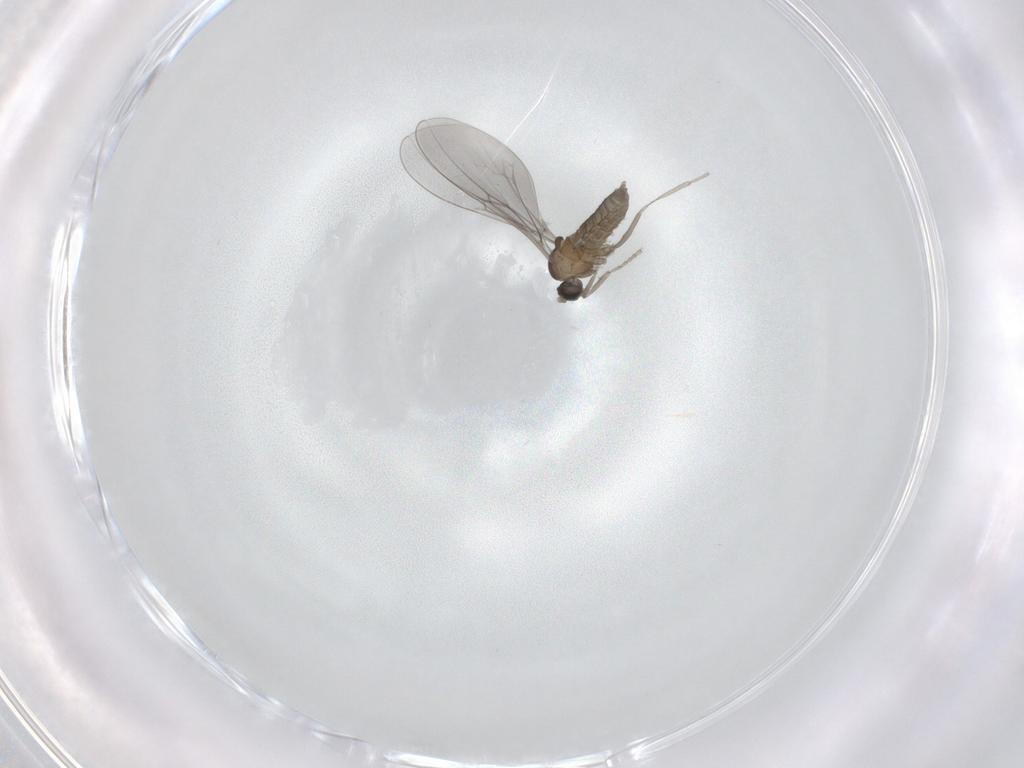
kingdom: Animalia
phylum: Arthropoda
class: Insecta
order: Diptera
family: Sciaridae
